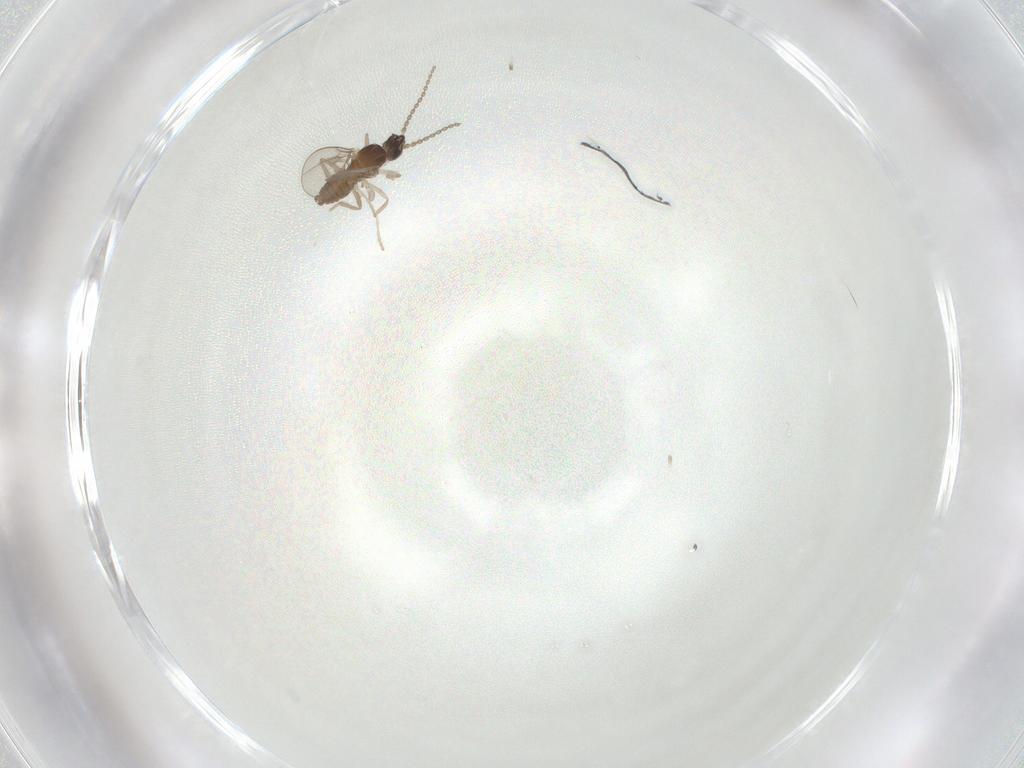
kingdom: Animalia
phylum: Arthropoda
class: Insecta
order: Diptera
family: Cecidomyiidae
